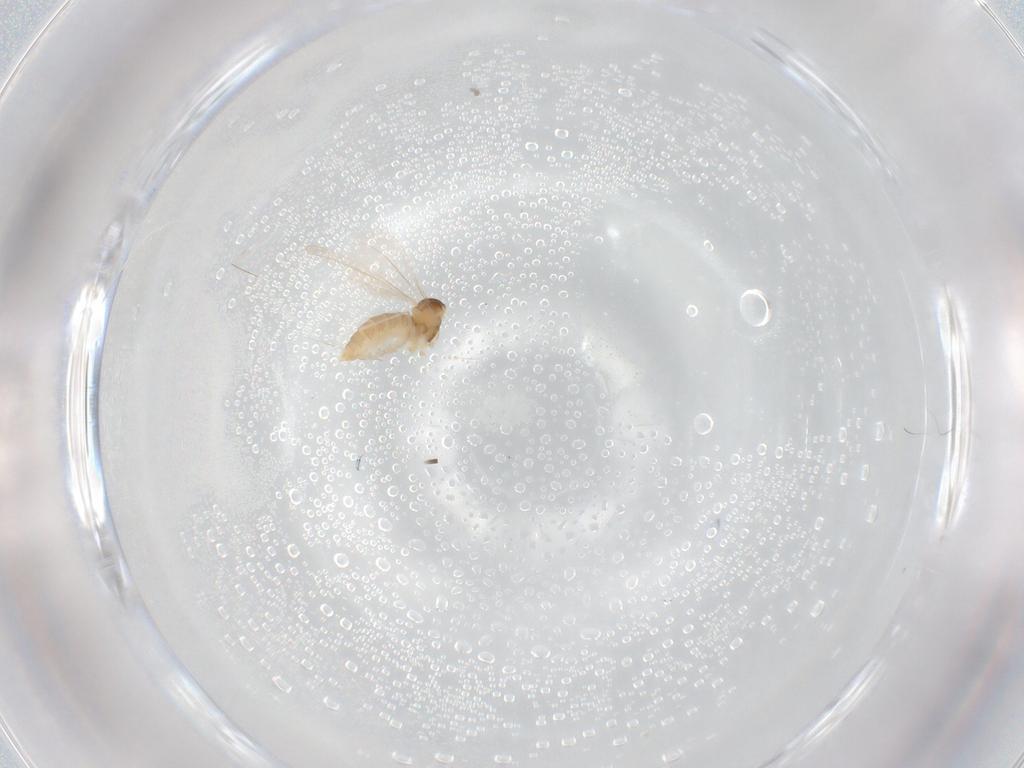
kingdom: Animalia
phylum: Arthropoda
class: Insecta
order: Diptera
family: Cecidomyiidae
